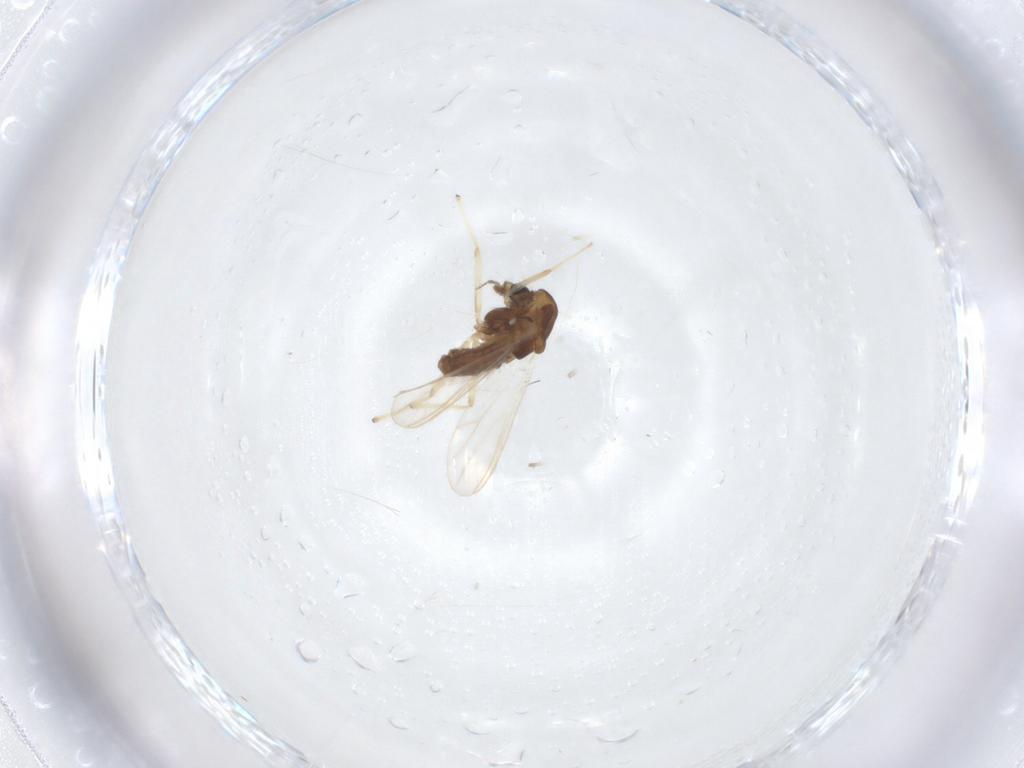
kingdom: Animalia
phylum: Arthropoda
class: Insecta
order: Diptera
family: Chironomidae
